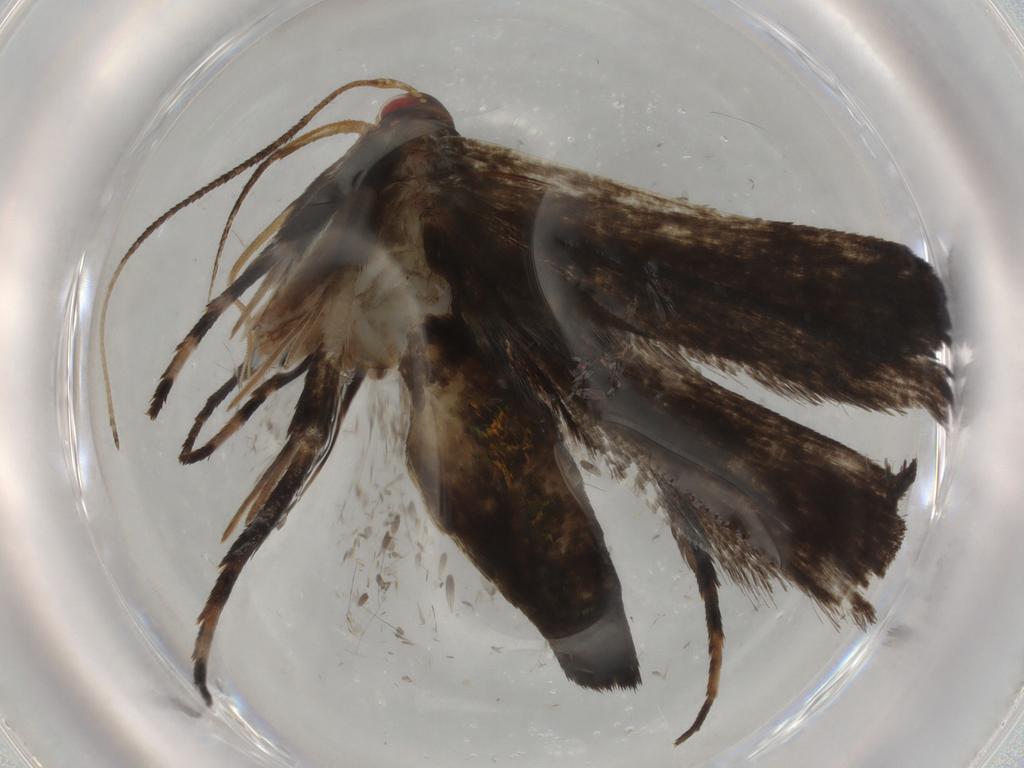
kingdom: Animalia
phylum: Arthropoda
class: Insecta
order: Lepidoptera
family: Gelechiidae
